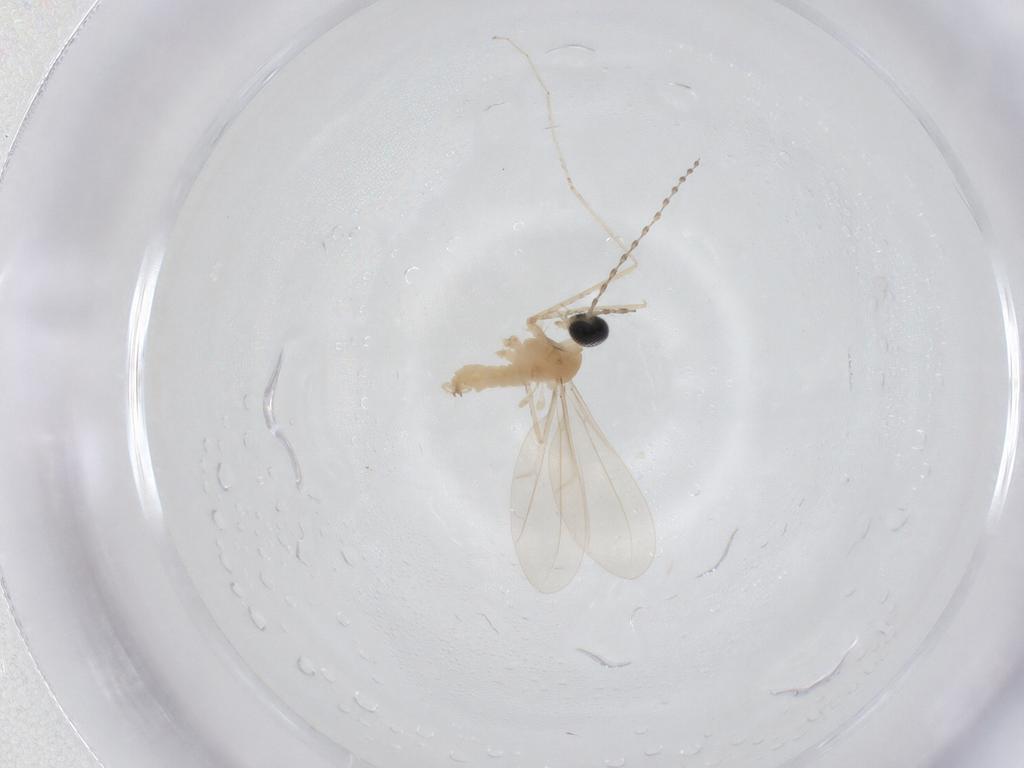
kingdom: Animalia
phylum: Arthropoda
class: Insecta
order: Diptera
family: Cecidomyiidae
